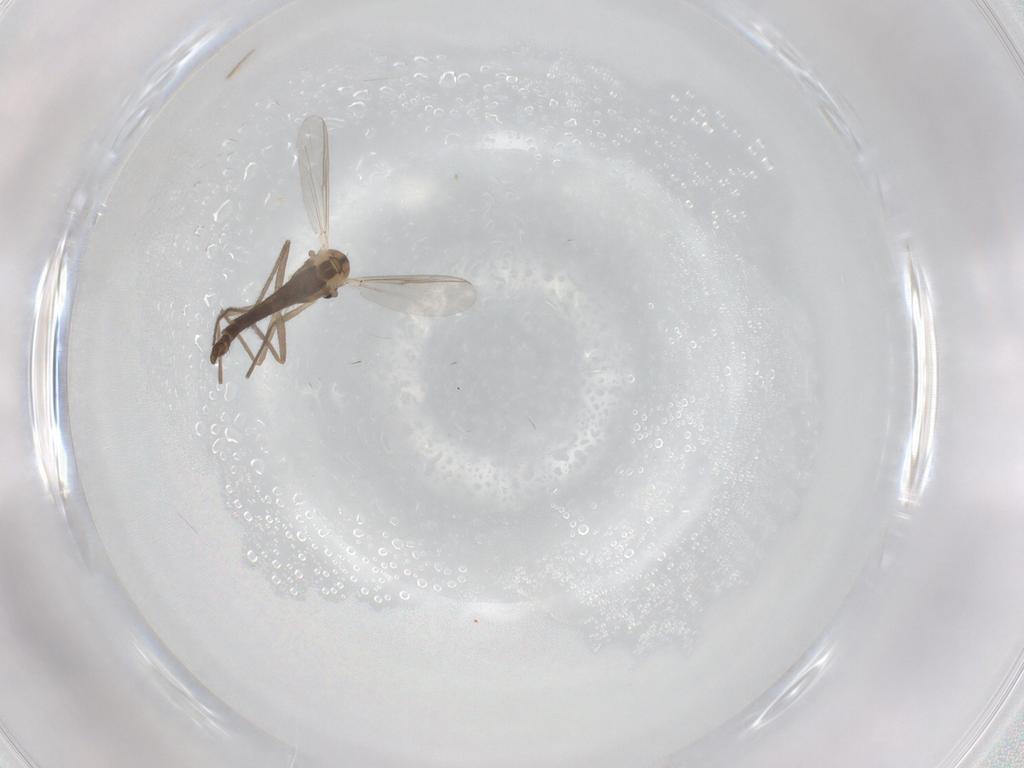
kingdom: Animalia
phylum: Arthropoda
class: Insecta
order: Diptera
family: Chironomidae
